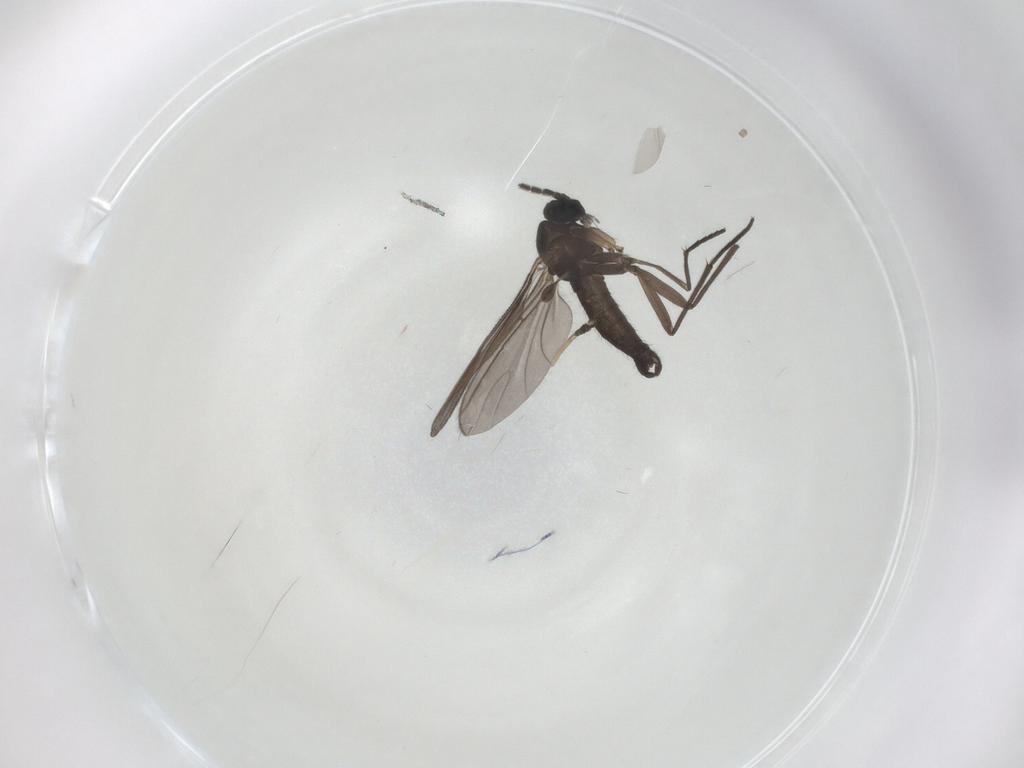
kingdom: Animalia
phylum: Arthropoda
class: Insecta
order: Diptera
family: Sciaridae
